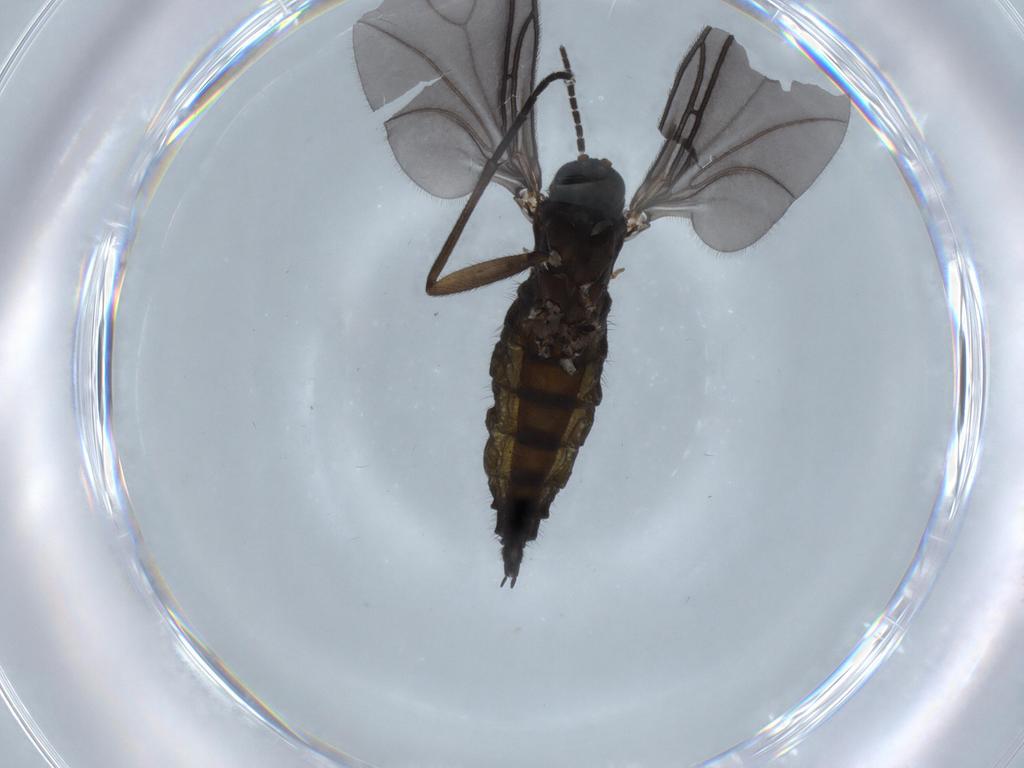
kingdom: Animalia
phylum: Arthropoda
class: Insecta
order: Diptera
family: Sciaridae
